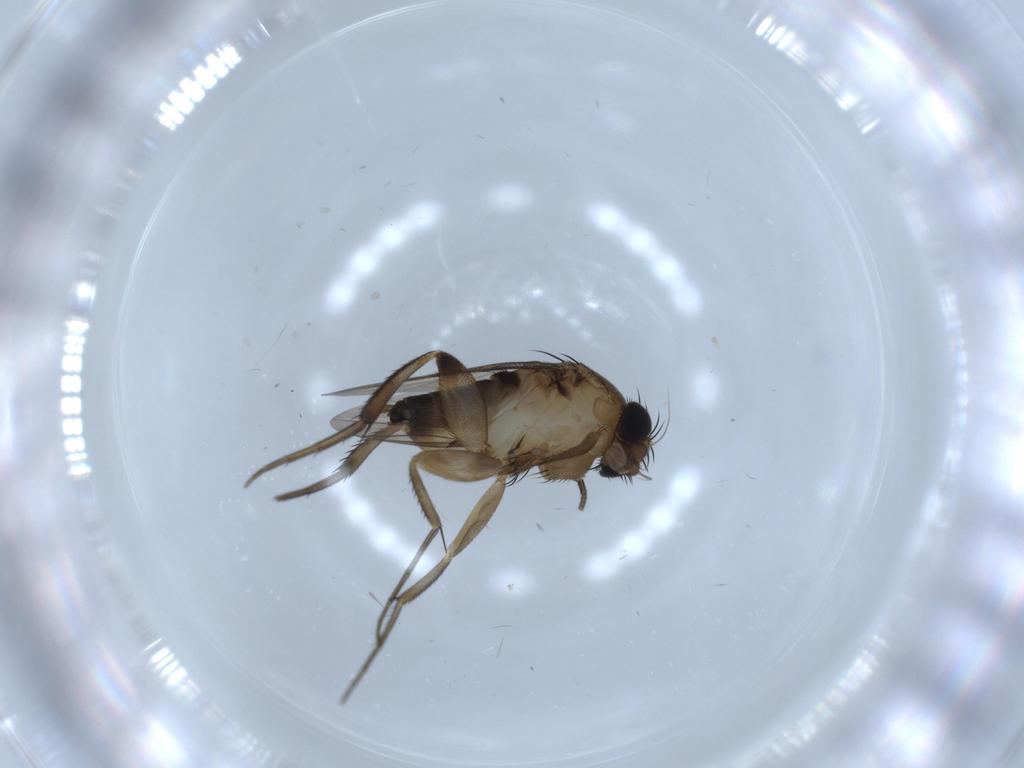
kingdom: Animalia
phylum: Arthropoda
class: Insecta
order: Diptera
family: Cecidomyiidae
